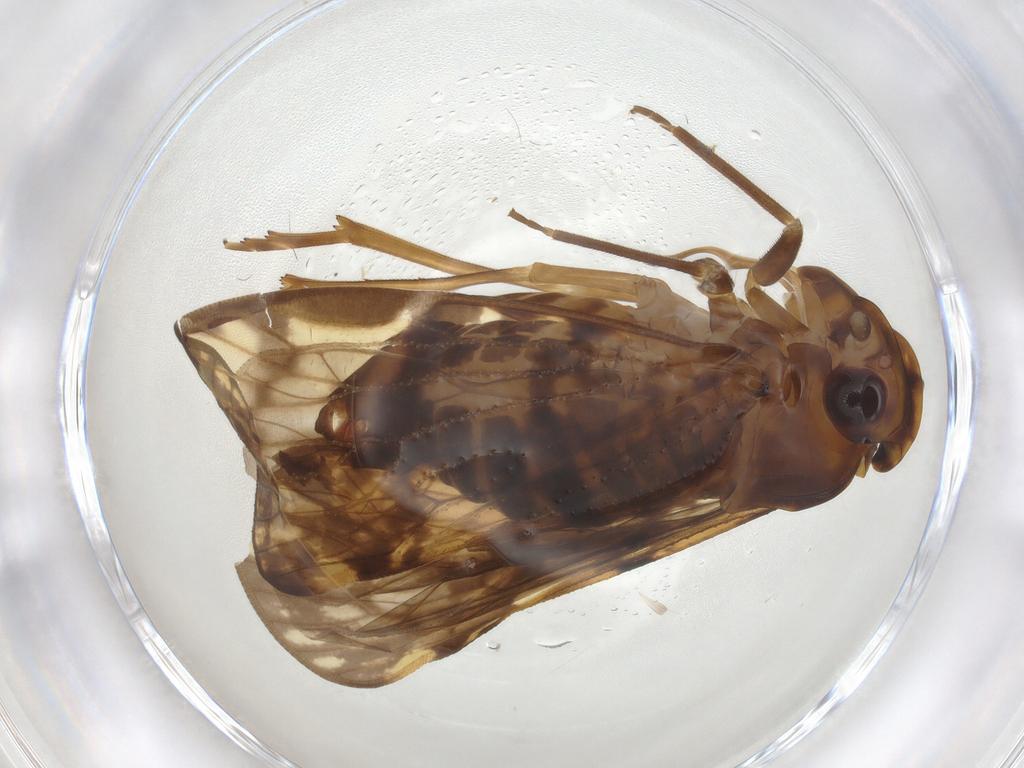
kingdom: Animalia
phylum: Arthropoda
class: Insecta
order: Hemiptera
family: Cixiidae
